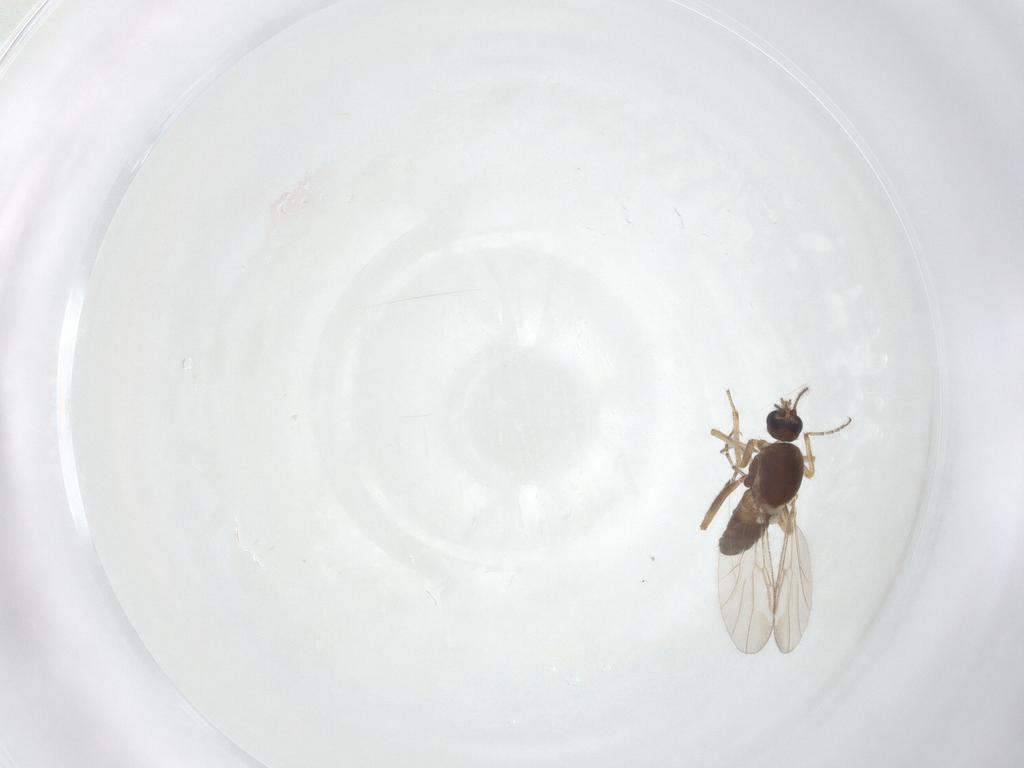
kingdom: Animalia
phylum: Arthropoda
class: Insecta
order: Diptera
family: Ceratopogonidae
